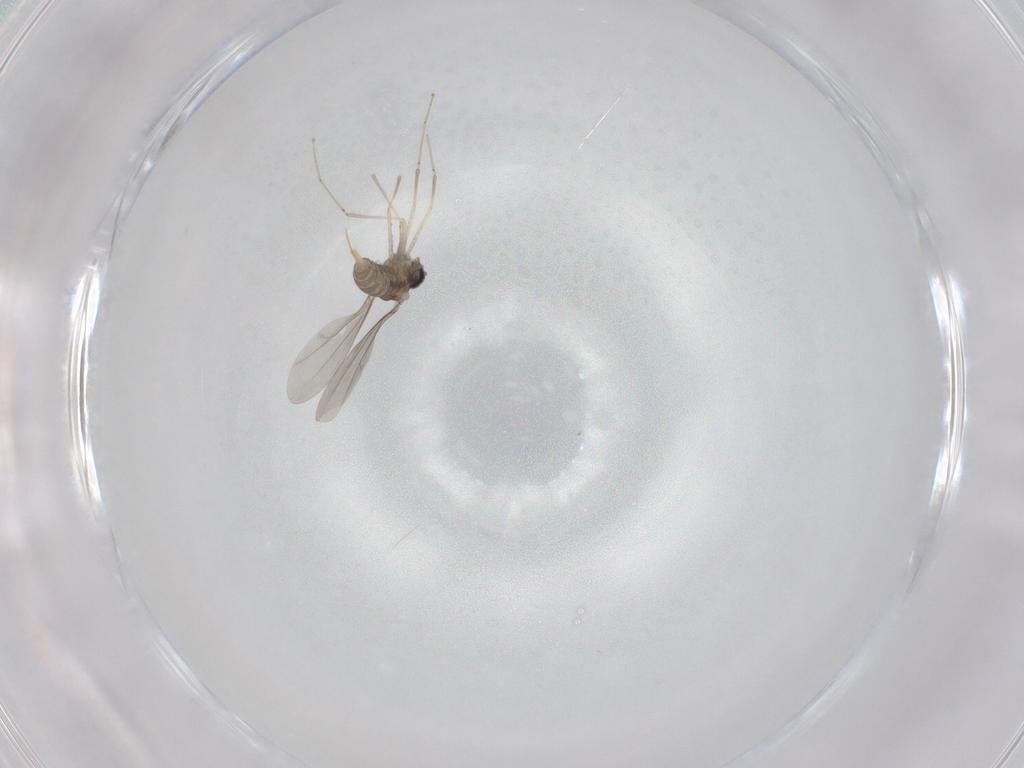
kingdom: Animalia
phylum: Arthropoda
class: Insecta
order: Diptera
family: Cecidomyiidae
